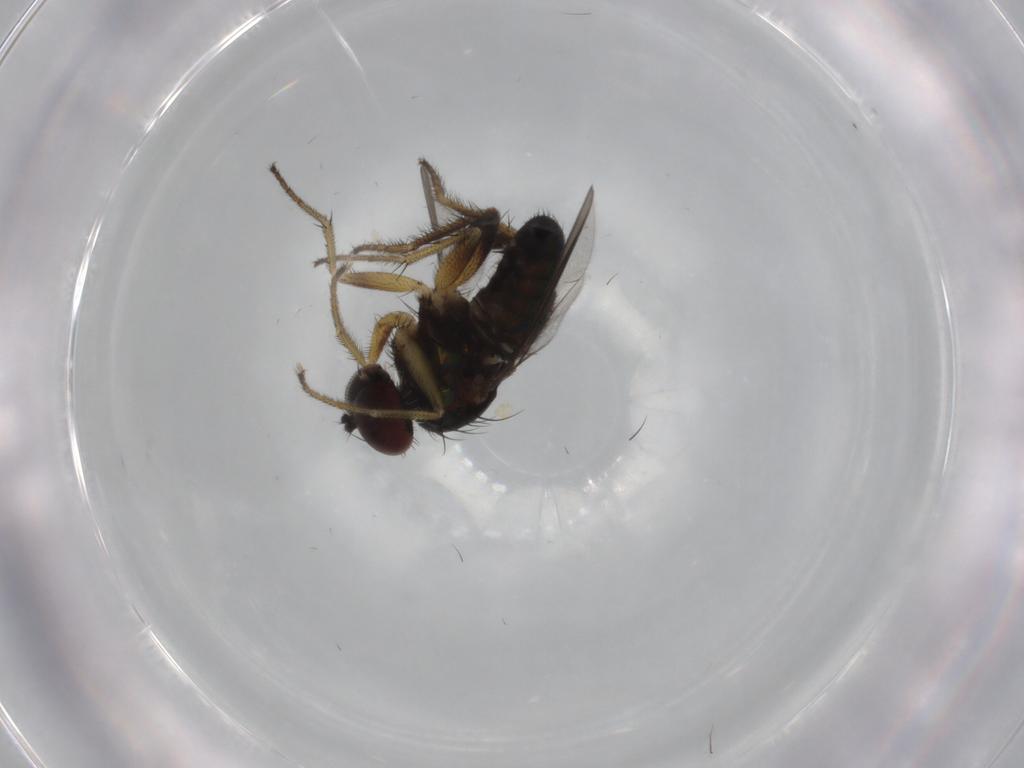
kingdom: Animalia
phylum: Arthropoda
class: Insecta
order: Diptera
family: Dolichopodidae
